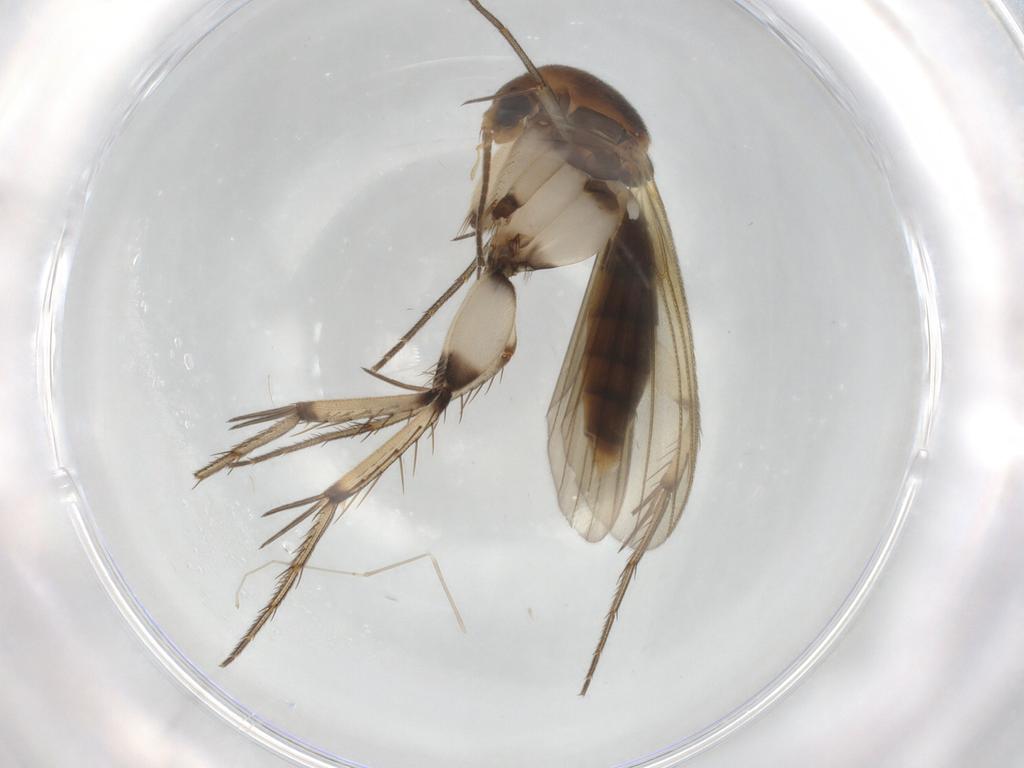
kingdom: Animalia
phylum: Arthropoda
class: Insecta
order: Diptera
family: Mycetophilidae
